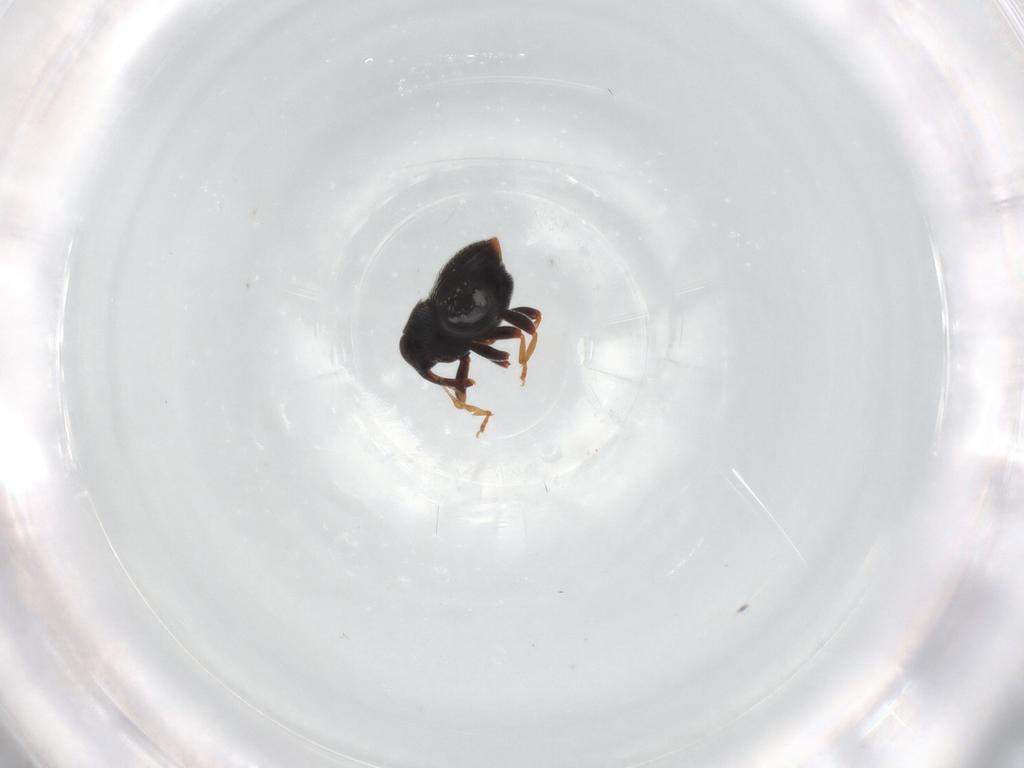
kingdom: Animalia
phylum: Arthropoda
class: Insecta
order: Coleoptera
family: Curculionidae
